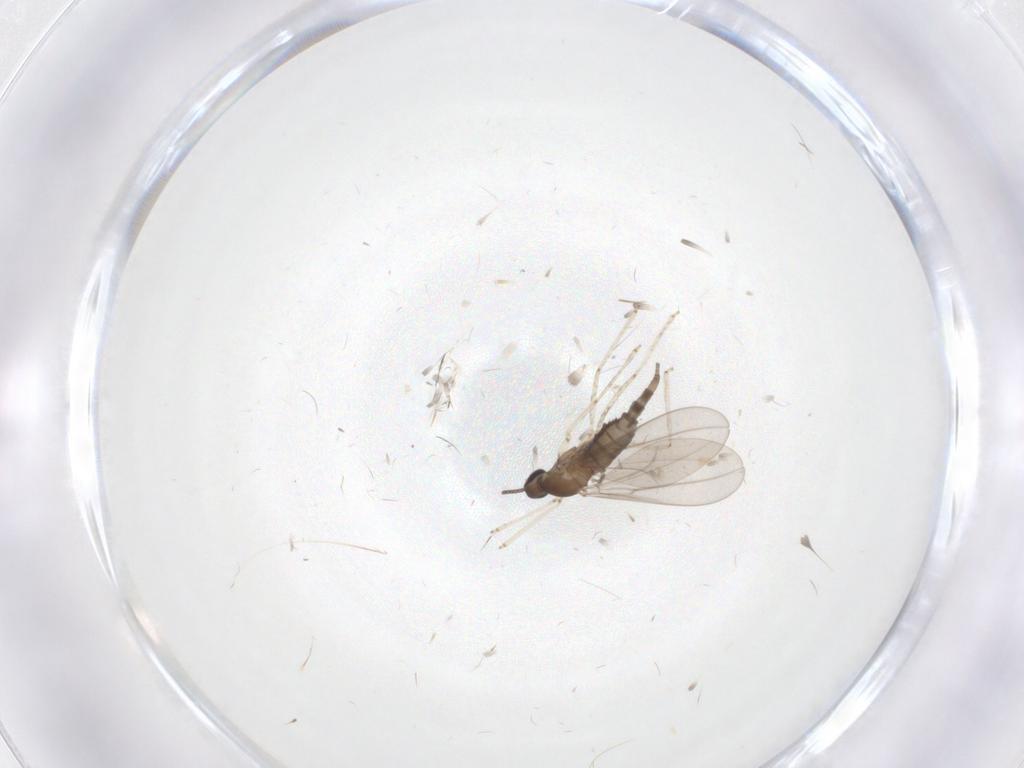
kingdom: Animalia
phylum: Arthropoda
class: Insecta
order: Diptera
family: Cecidomyiidae
